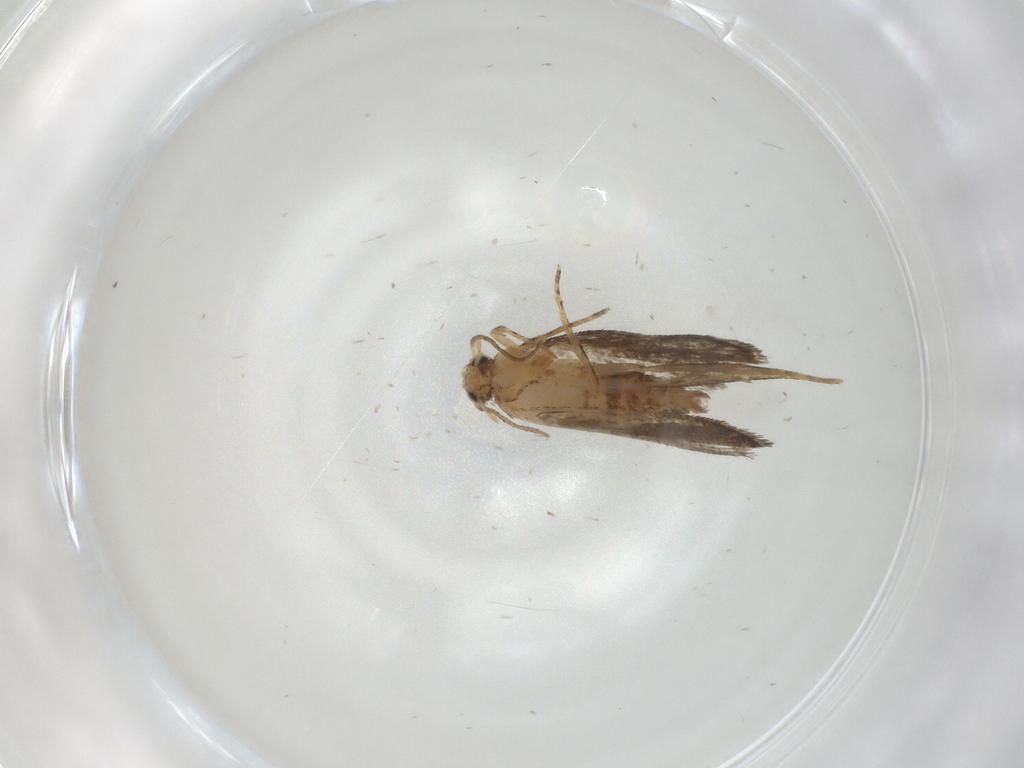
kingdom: Animalia
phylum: Arthropoda
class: Insecta
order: Lepidoptera
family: Tineidae
